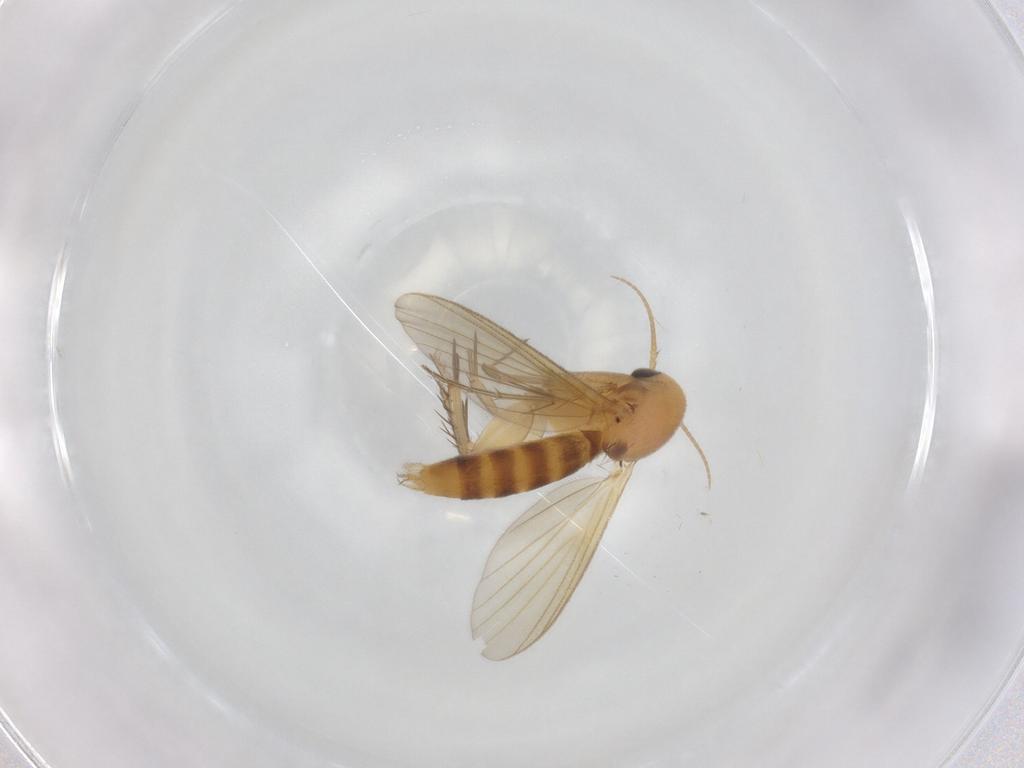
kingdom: Animalia
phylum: Arthropoda
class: Insecta
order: Diptera
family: Mycetophilidae
